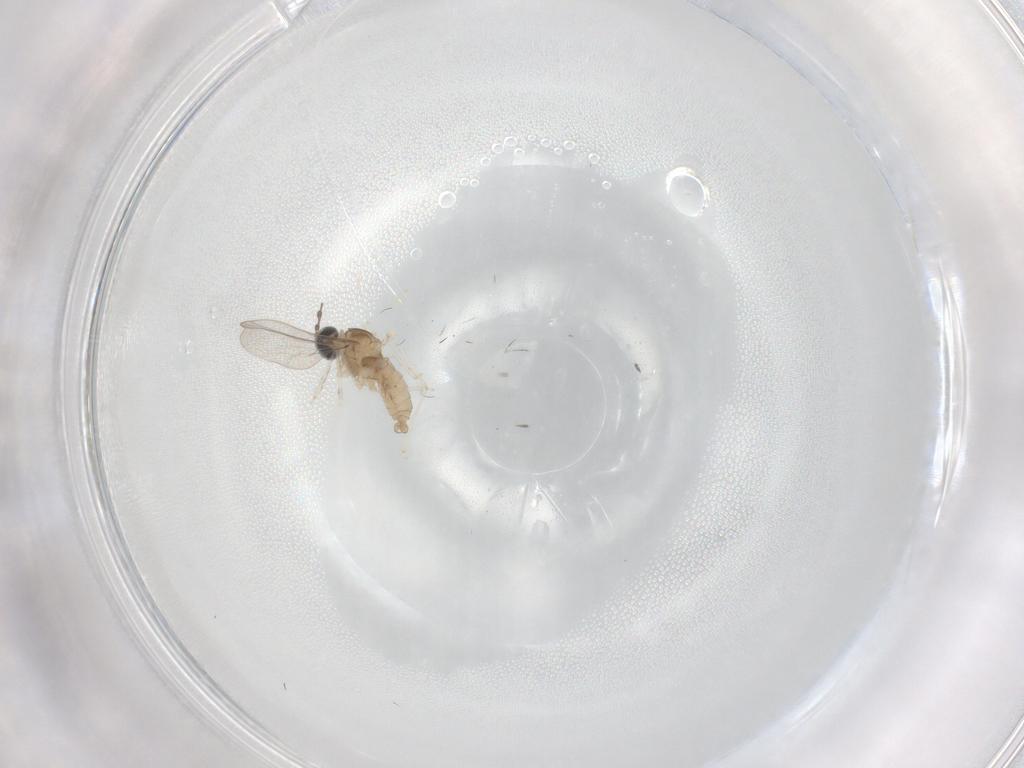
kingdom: Animalia
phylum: Arthropoda
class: Insecta
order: Diptera
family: Cecidomyiidae
